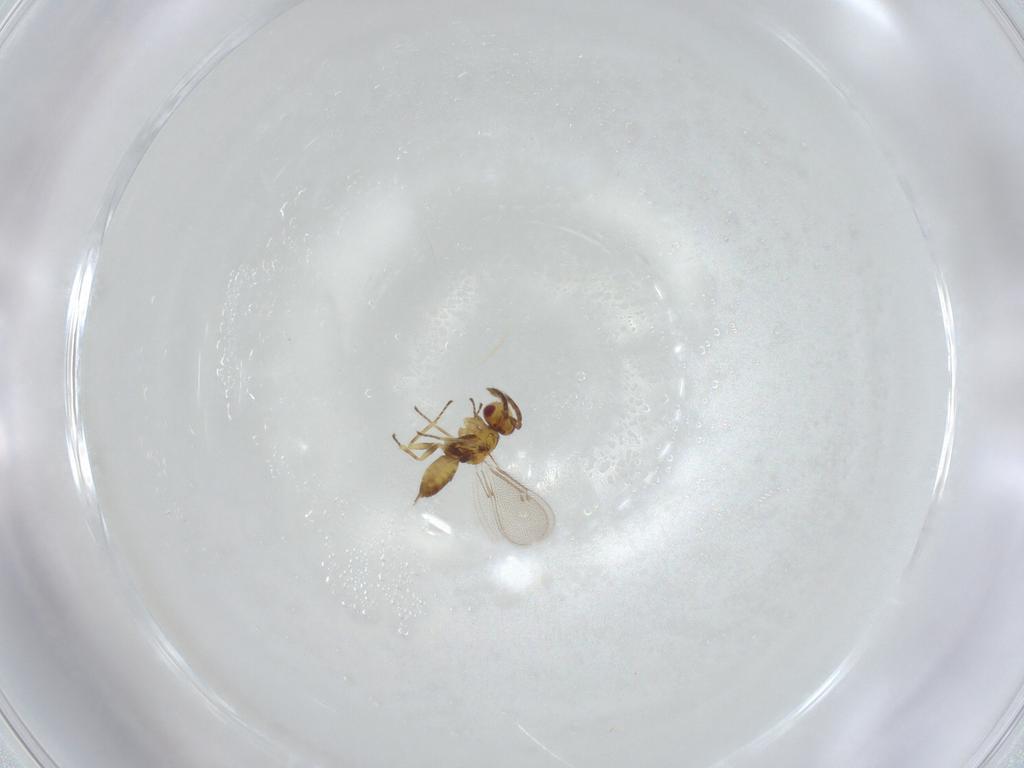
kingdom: Animalia
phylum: Arthropoda
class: Insecta
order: Hymenoptera
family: Eulophidae
